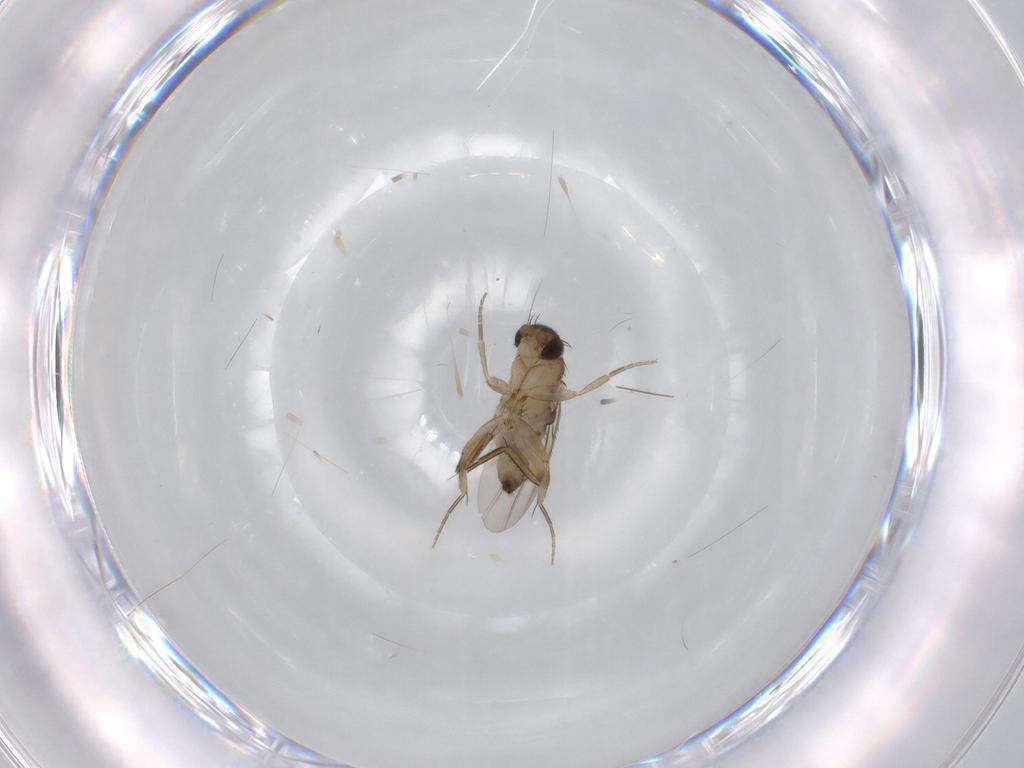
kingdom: Animalia
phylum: Arthropoda
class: Insecta
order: Diptera
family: Phoridae
